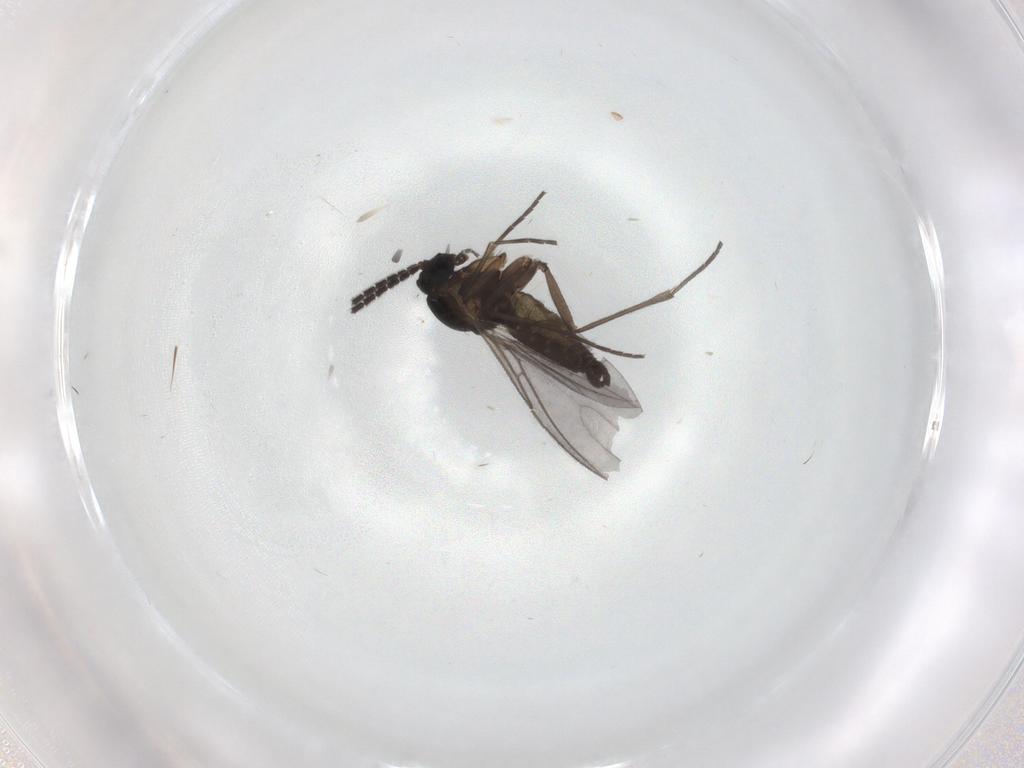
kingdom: Animalia
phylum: Arthropoda
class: Insecta
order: Diptera
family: Sciaridae
